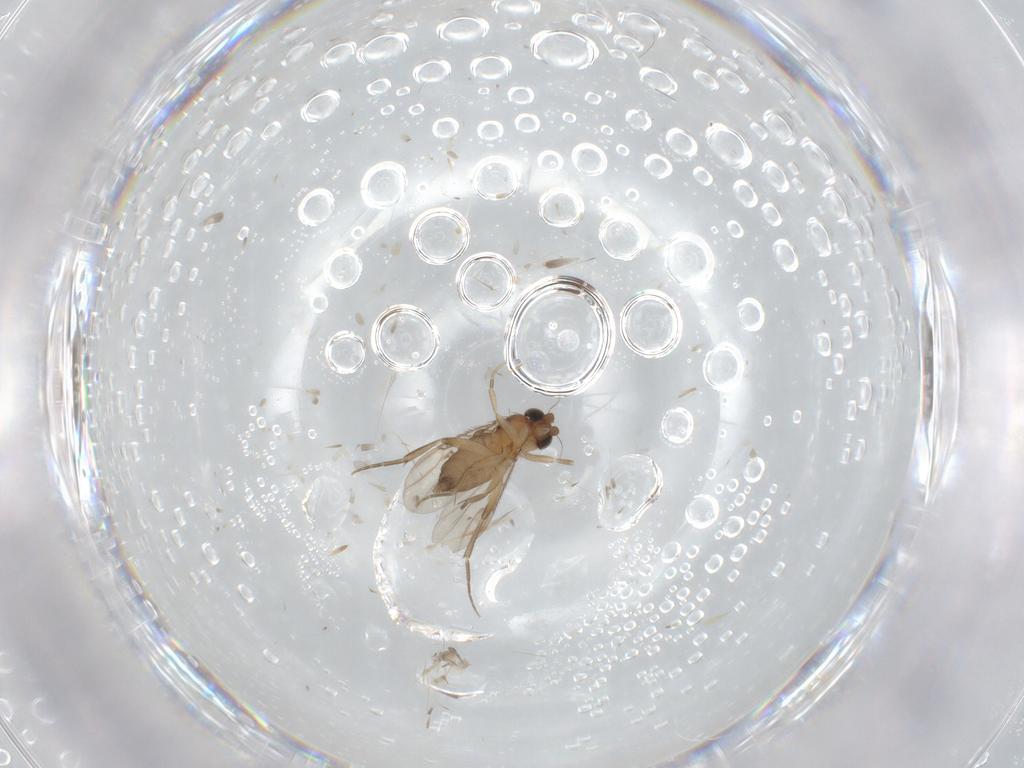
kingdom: Animalia
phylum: Arthropoda
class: Insecta
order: Diptera
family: Phoridae
